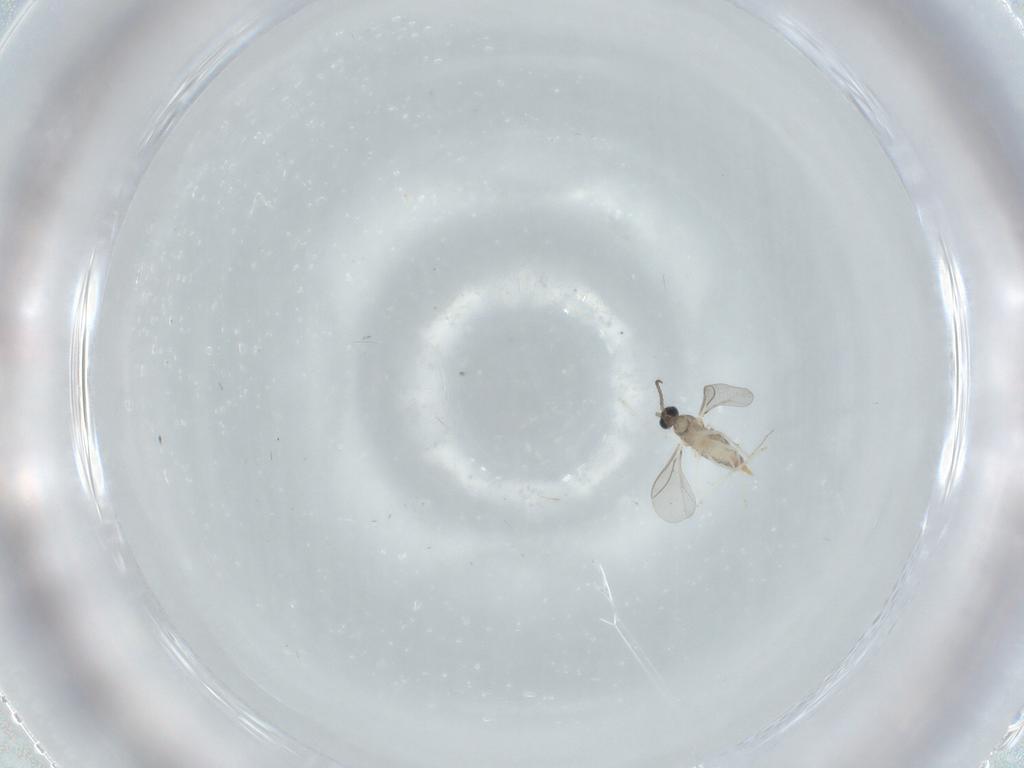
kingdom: Animalia
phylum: Arthropoda
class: Insecta
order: Diptera
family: Cecidomyiidae
